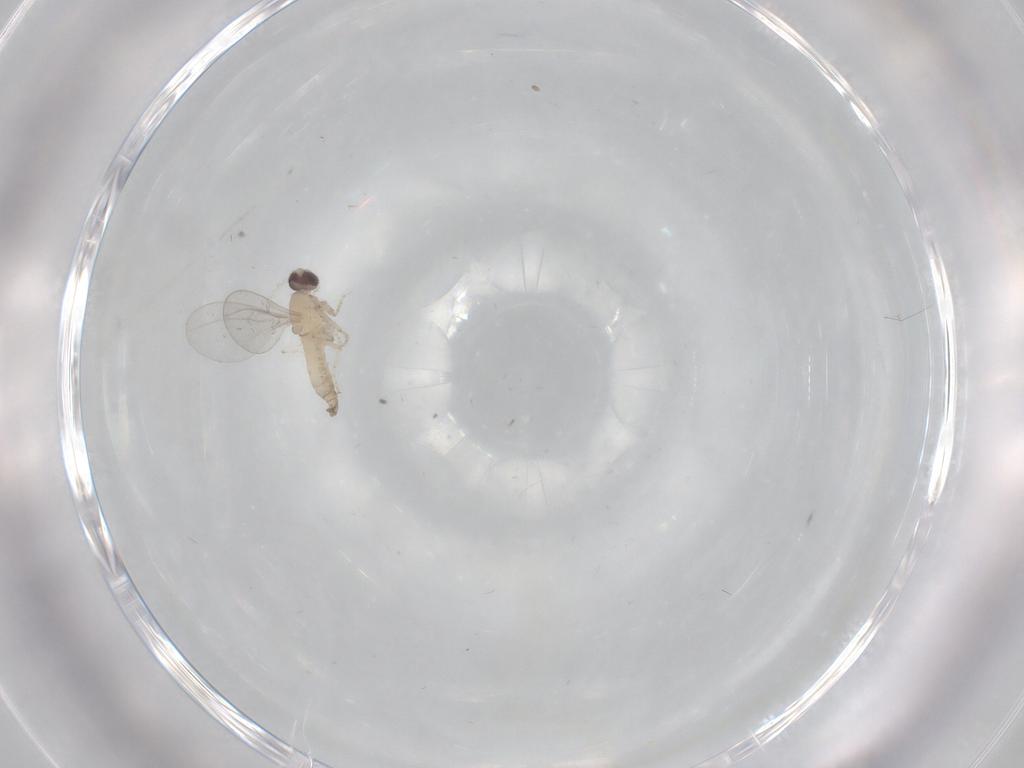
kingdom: Animalia
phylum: Arthropoda
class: Insecta
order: Diptera
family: Cecidomyiidae
